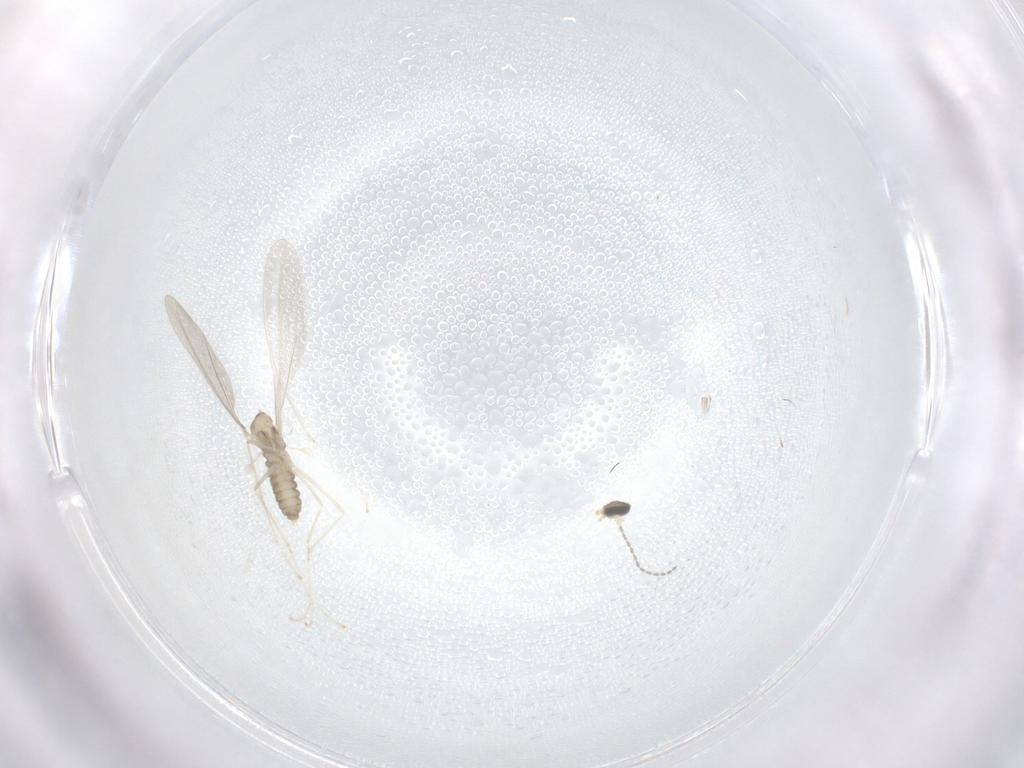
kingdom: Animalia
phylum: Arthropoda
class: Insecta
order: Diptera
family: Cecidomyiidae
